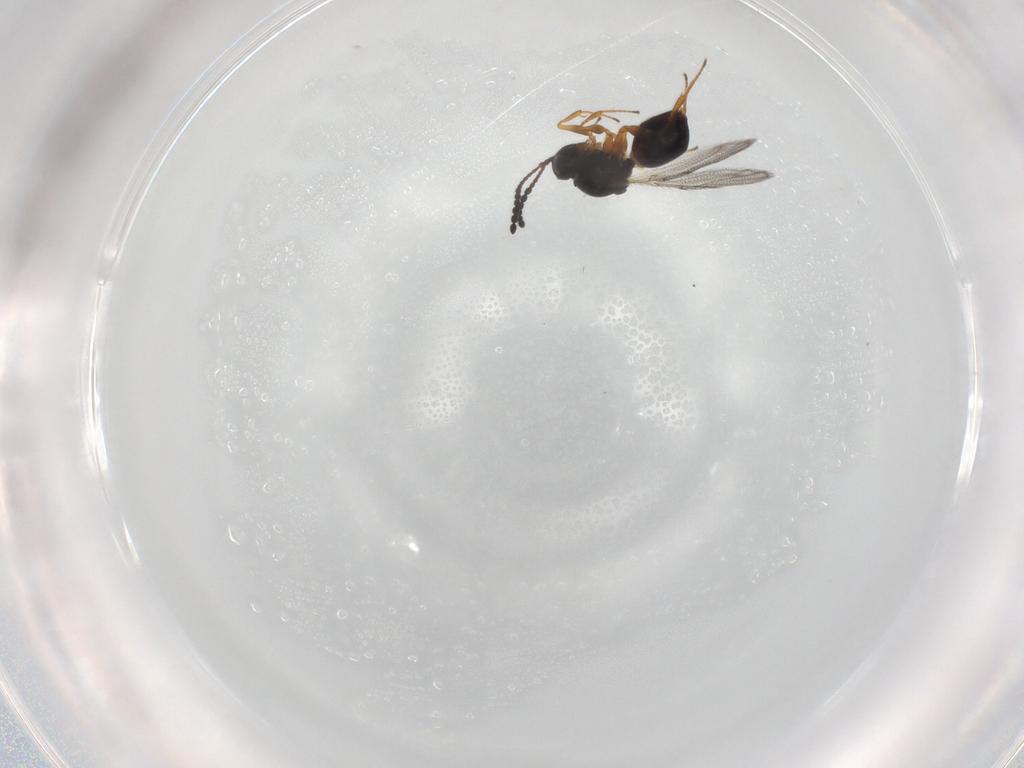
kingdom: Animalia
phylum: Arthropoda
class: Insecta
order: Hymenoptera
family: Figitidae
